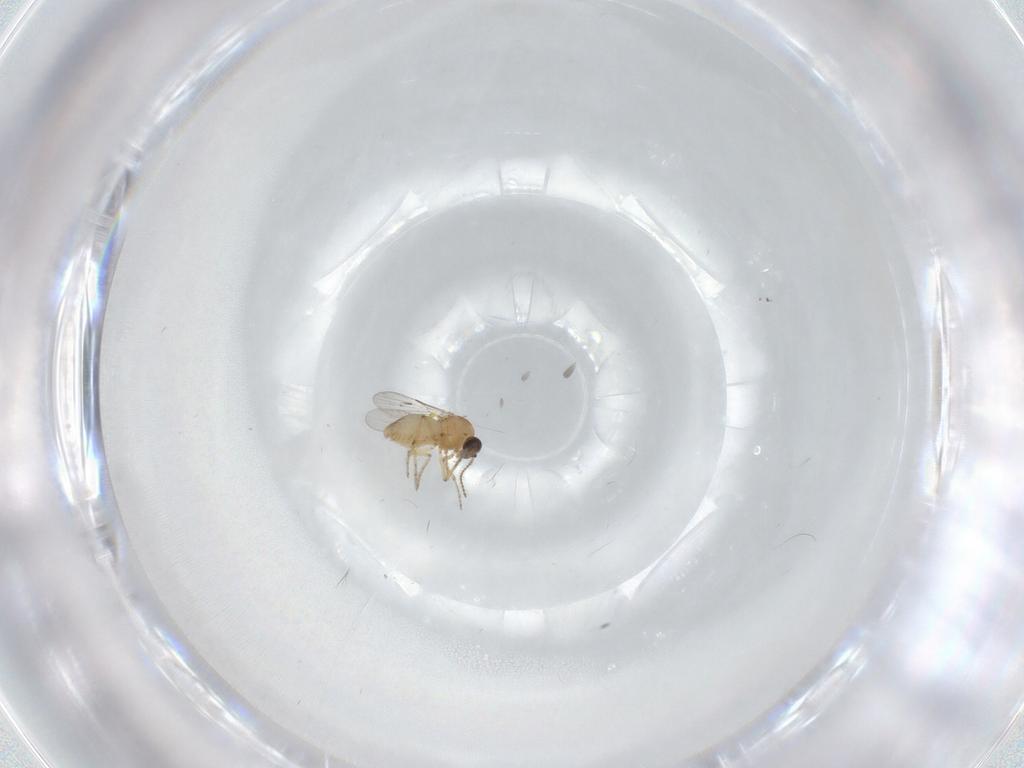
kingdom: Animalia
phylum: Arthropoda
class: Insecta
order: Diptera
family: Cecidomyiidae
